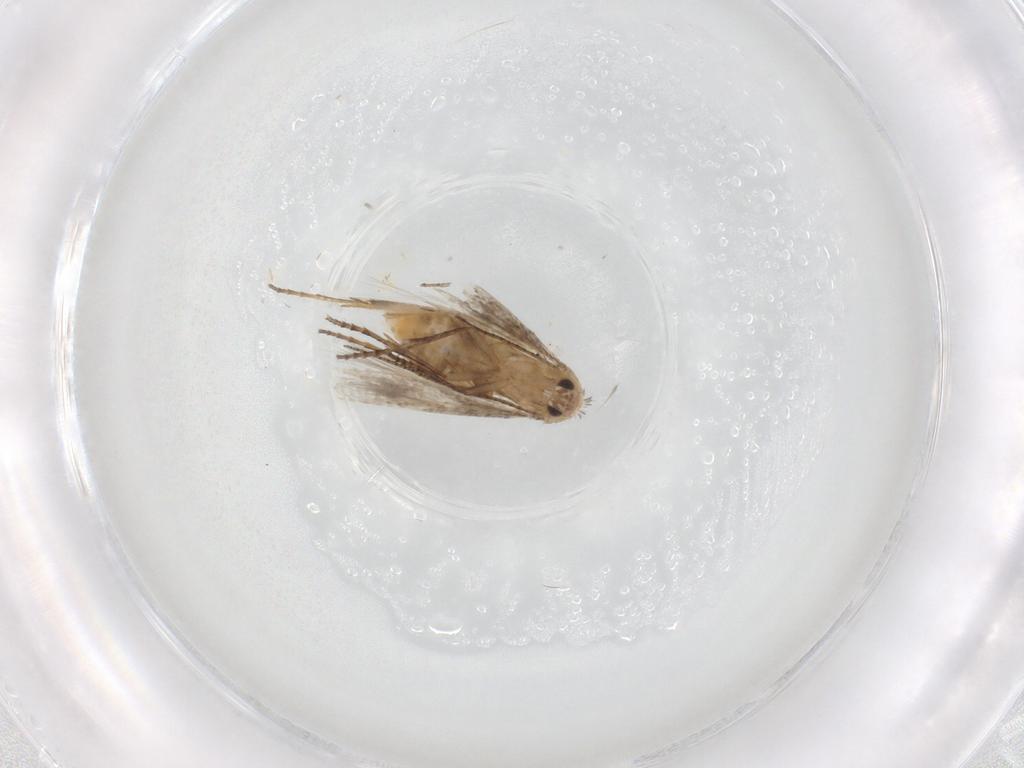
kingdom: Animalia
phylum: Arthropoda
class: Insecta
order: Lepidoptera
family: Bucculatricidae
